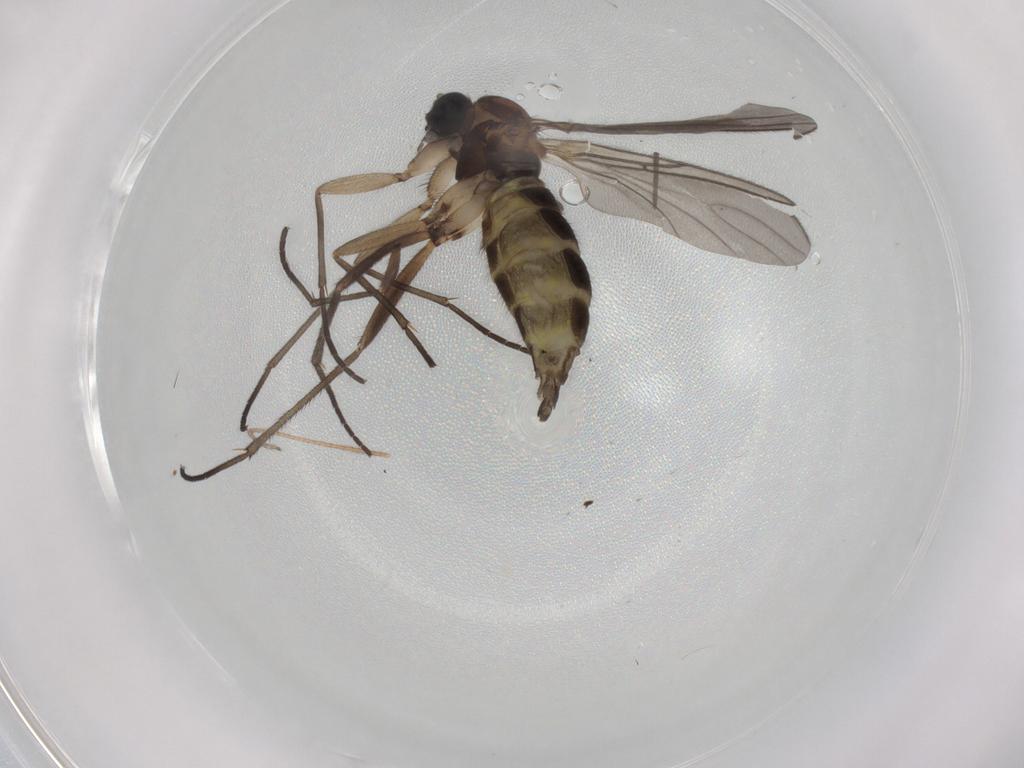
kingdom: Animalia
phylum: Arthropoda
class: Insecta
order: Diptera
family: Sciaridae
